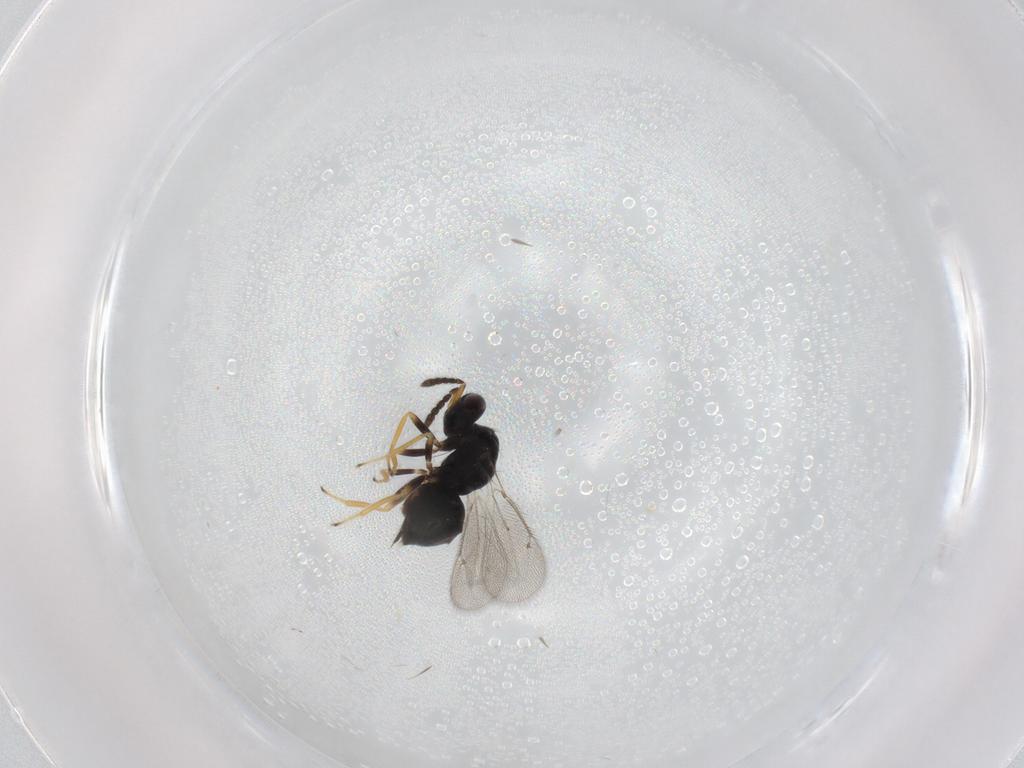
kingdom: Animalia
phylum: Arthropoda
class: Insecta
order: Hymenoptera
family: Eulophidae
